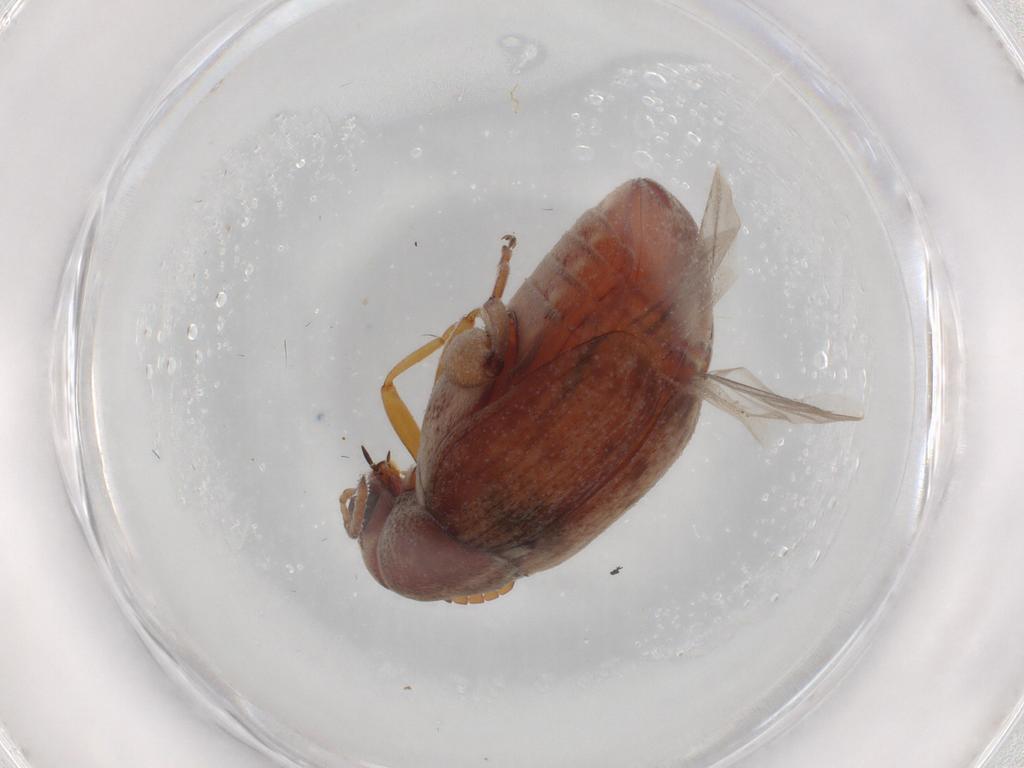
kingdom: Animalia
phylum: Arthropoda
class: Insecta
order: Coleoptera
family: Chrysomelidae
